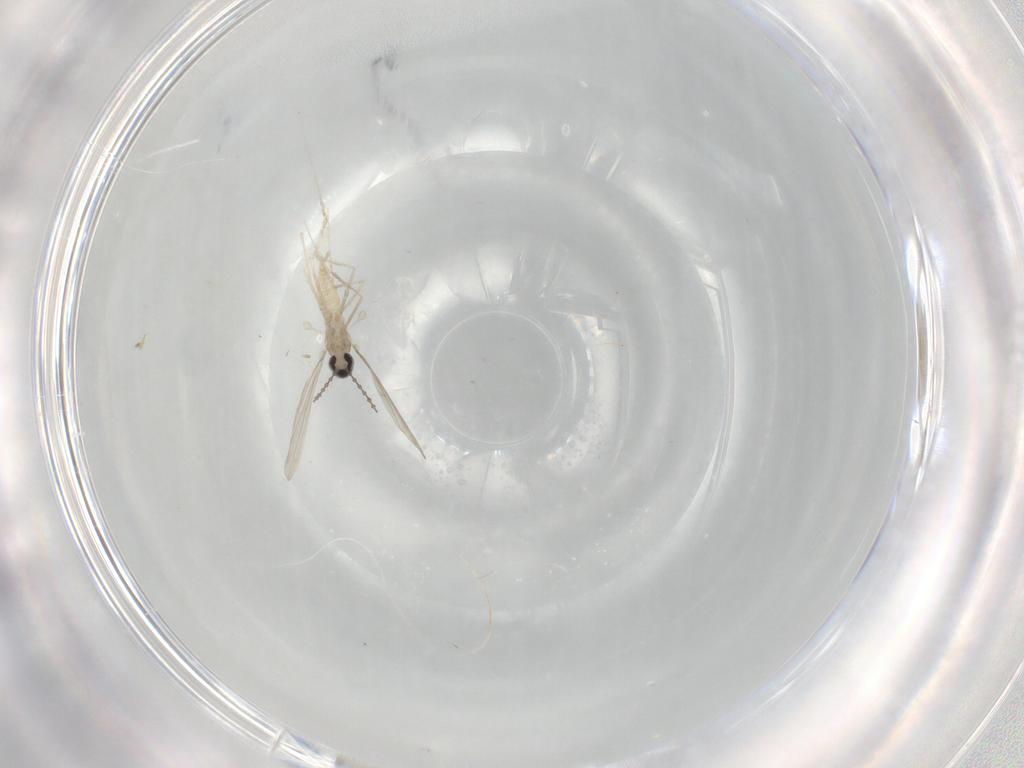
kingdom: Animalia
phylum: Arthropoda
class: Insecta
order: Diptera
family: Cecidomyiidae
